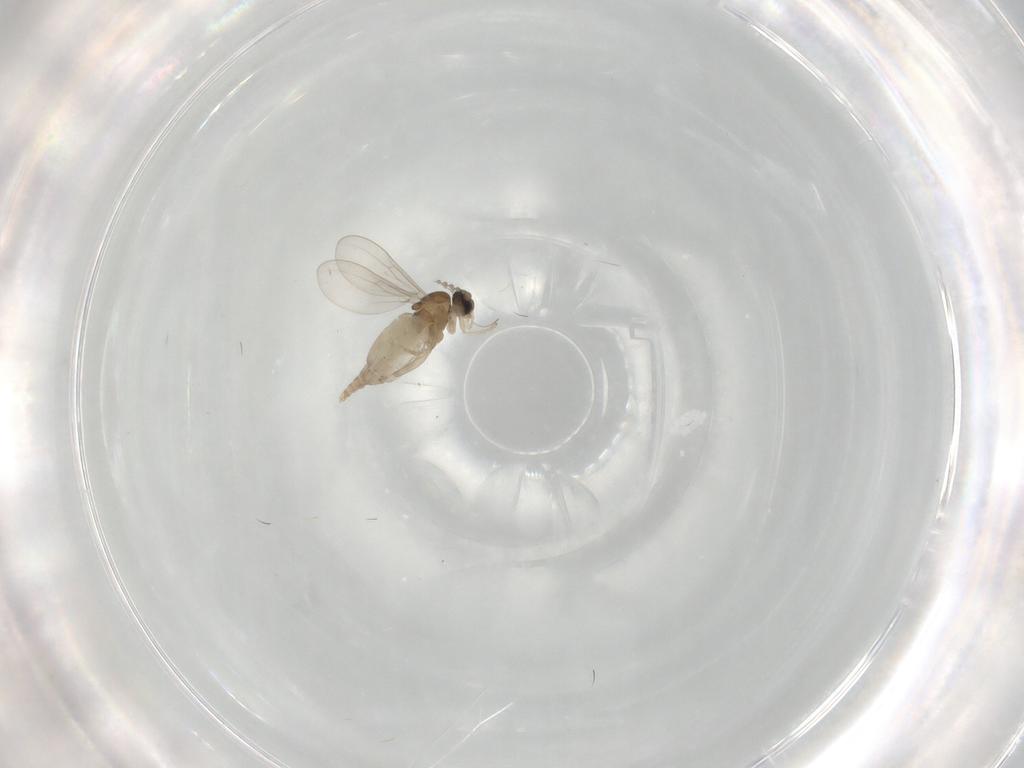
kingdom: Animalia
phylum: Arthropoda
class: Insecta
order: Diptera
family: Cecidomyiidae
